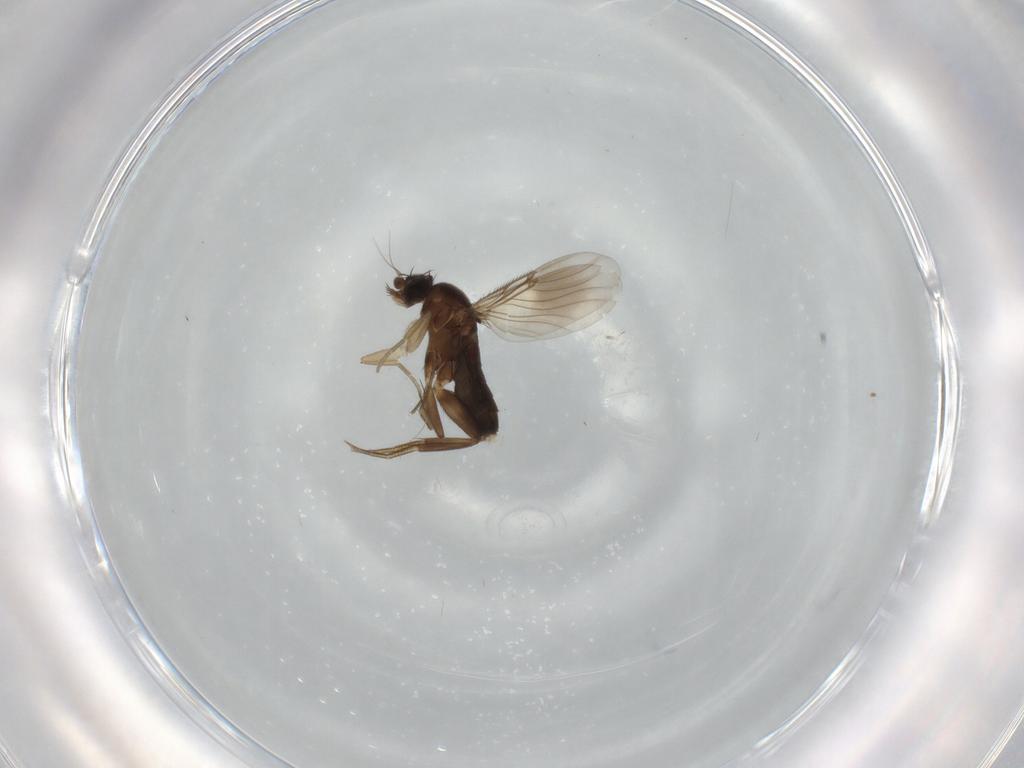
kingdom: Animalia
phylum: Arthropoda
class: Insecta
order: Diptera
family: Phoridae
